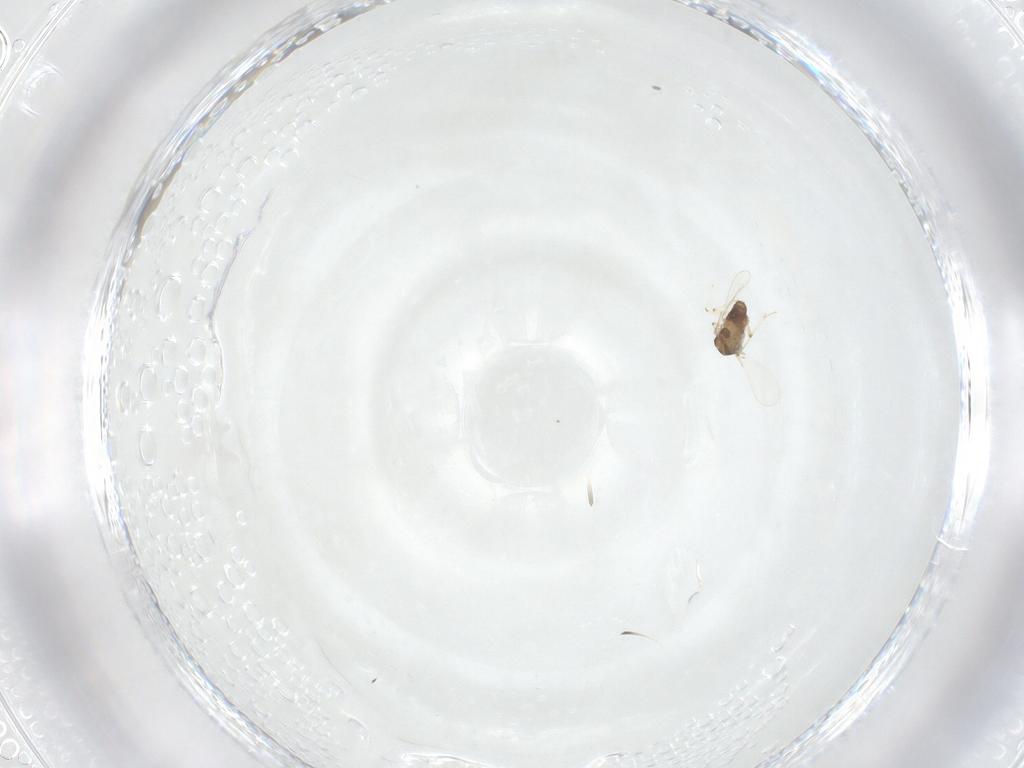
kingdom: Animalia
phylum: Arthropoda
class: Insecta
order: Diptera
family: Chironomidae
